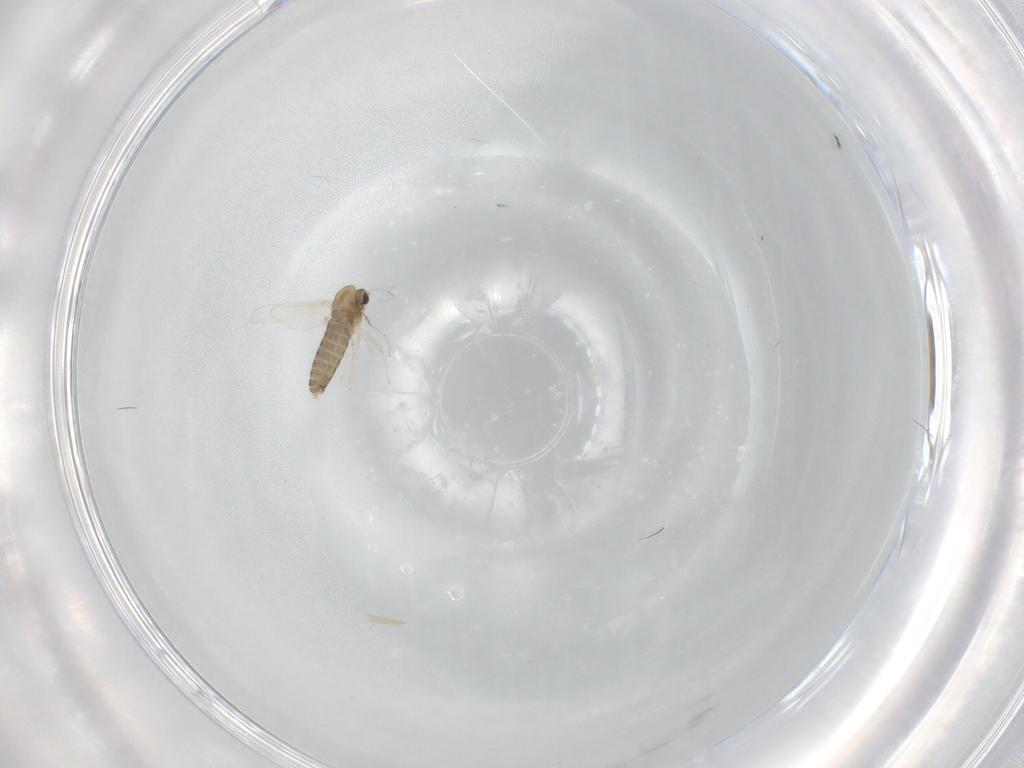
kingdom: Animalia
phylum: Arthropoda
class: Insecta
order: Diptera
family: Chironomidae
